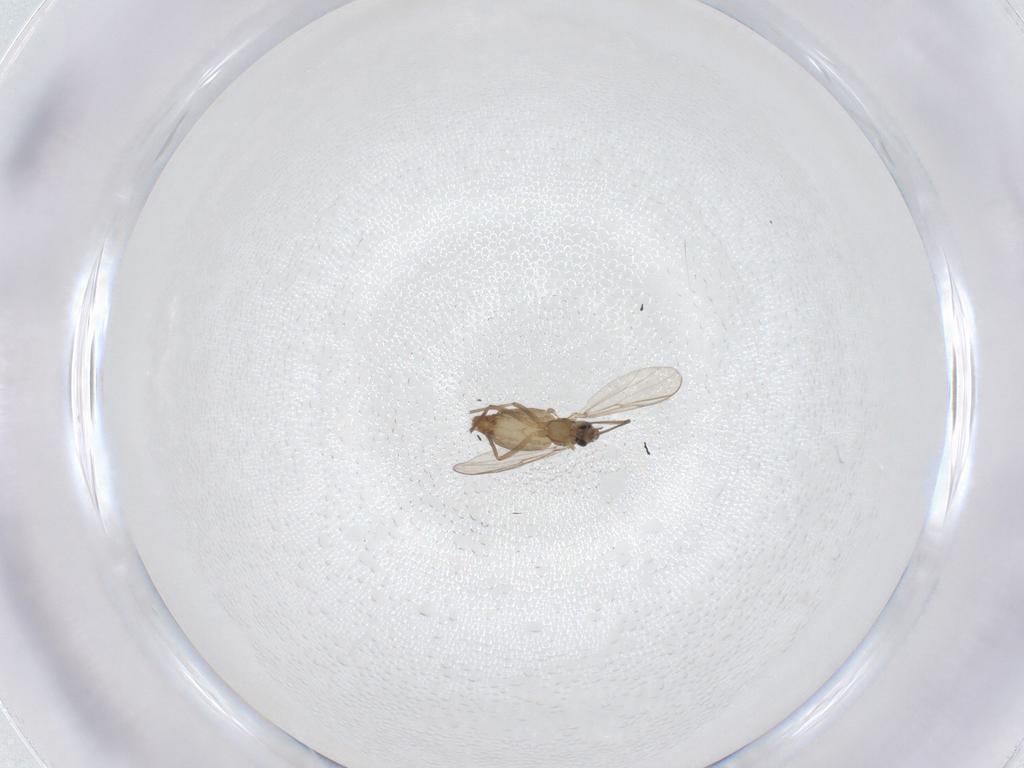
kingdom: Animalia
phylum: Arthropoda
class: Insecta
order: Diptera
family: Chironomidae
